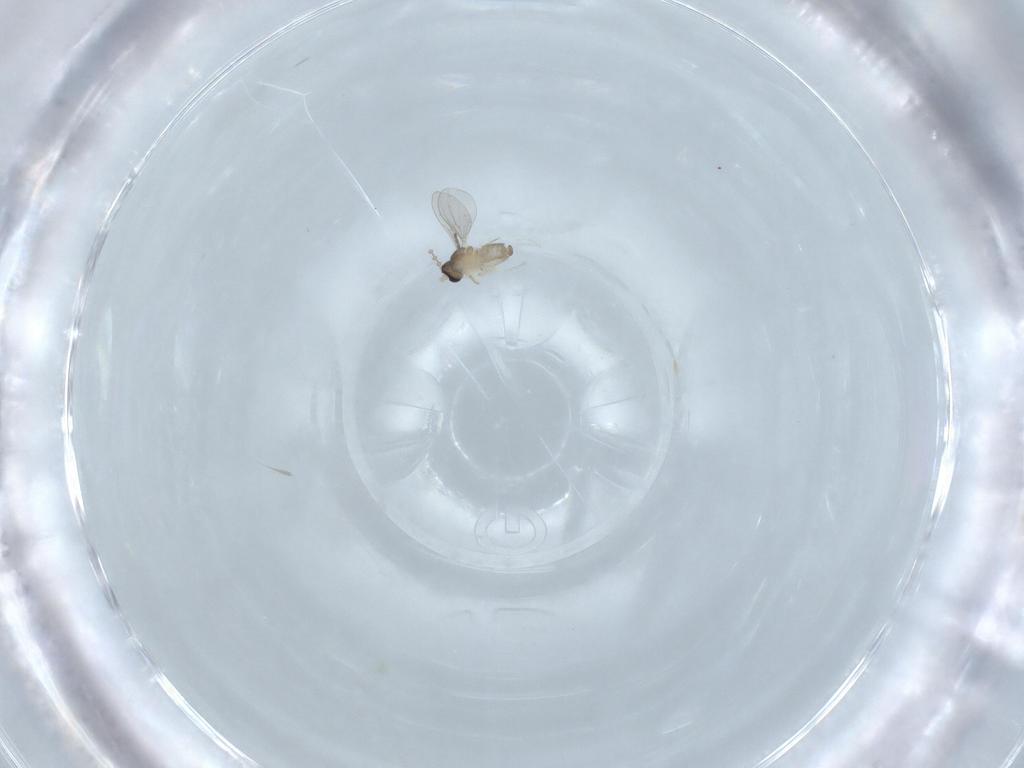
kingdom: Animalia
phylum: Arthropoda
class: Insecta
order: Diptera
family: Cecidomyiidae
